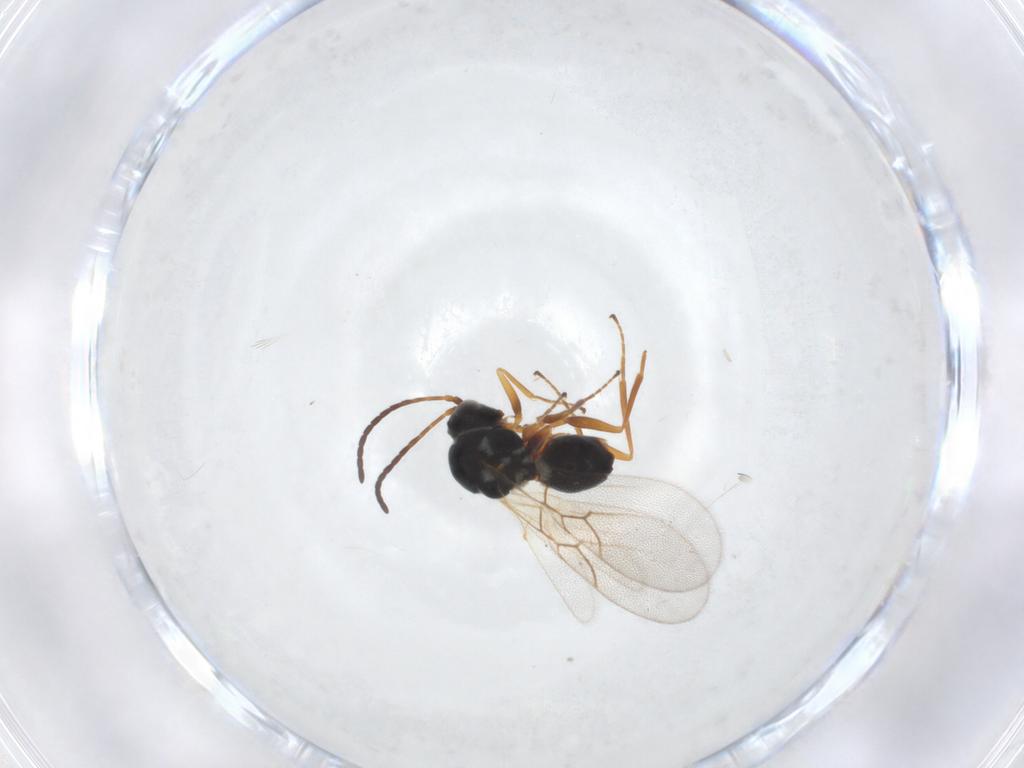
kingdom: Animalia
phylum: Arthropoda
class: Insecta
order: Hymenoptera
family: Figitidae
